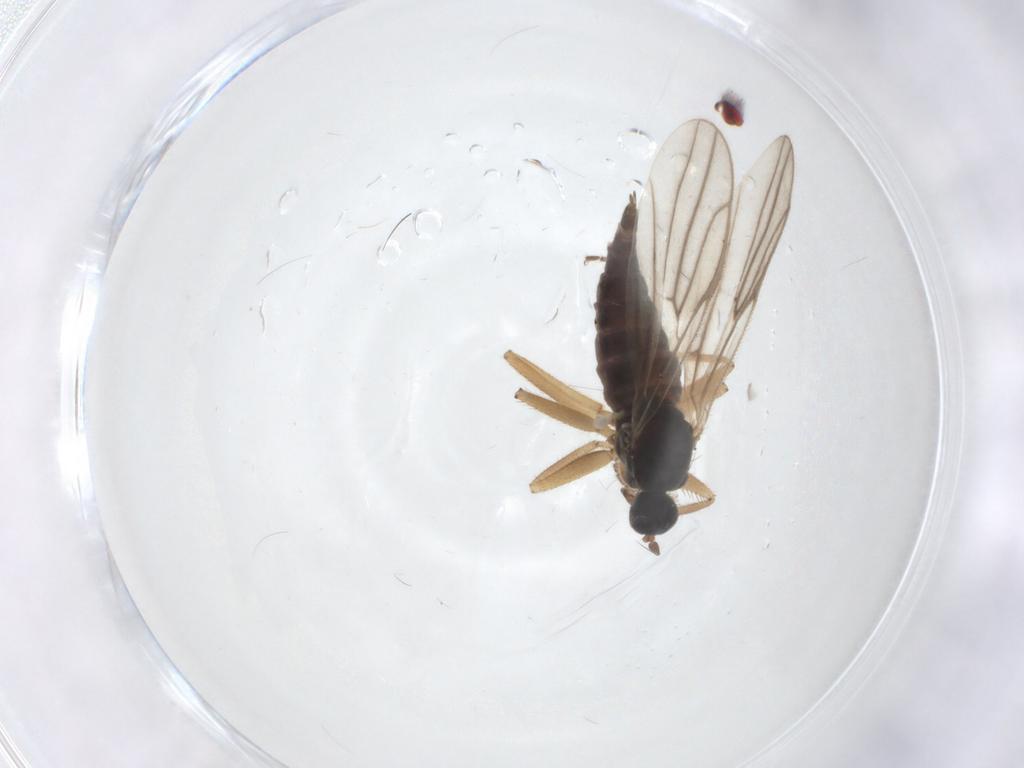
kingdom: Animalia
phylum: Arthropoda
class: Insecta
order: Diptera
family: Hybotidae
